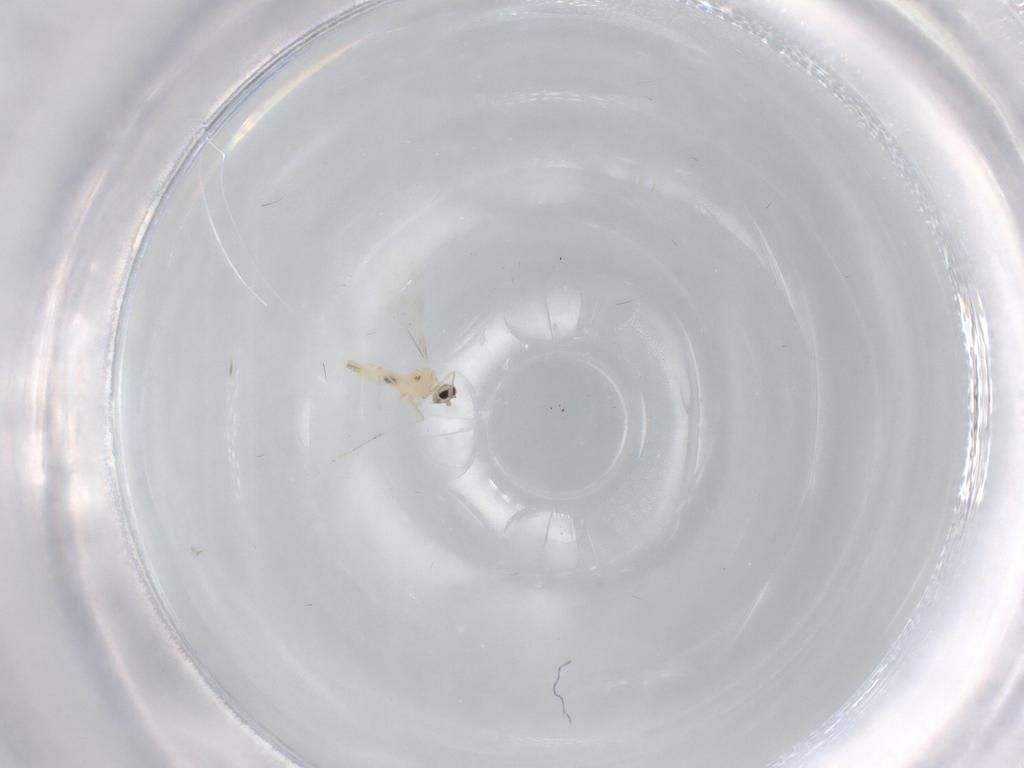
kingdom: Animalia
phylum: Arthropoda
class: Insecta
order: Diptera
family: Cecidomyiidae
